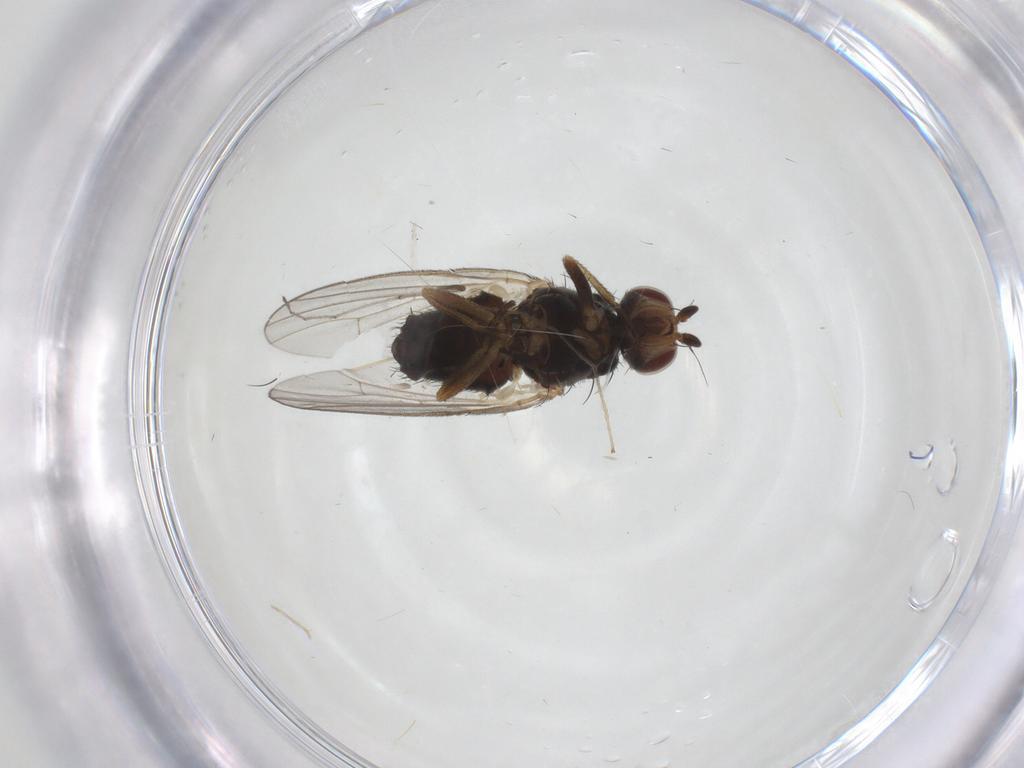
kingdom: Animalia
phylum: Arthropoda
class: Insecta
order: Diptera
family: Heleomyzidae
